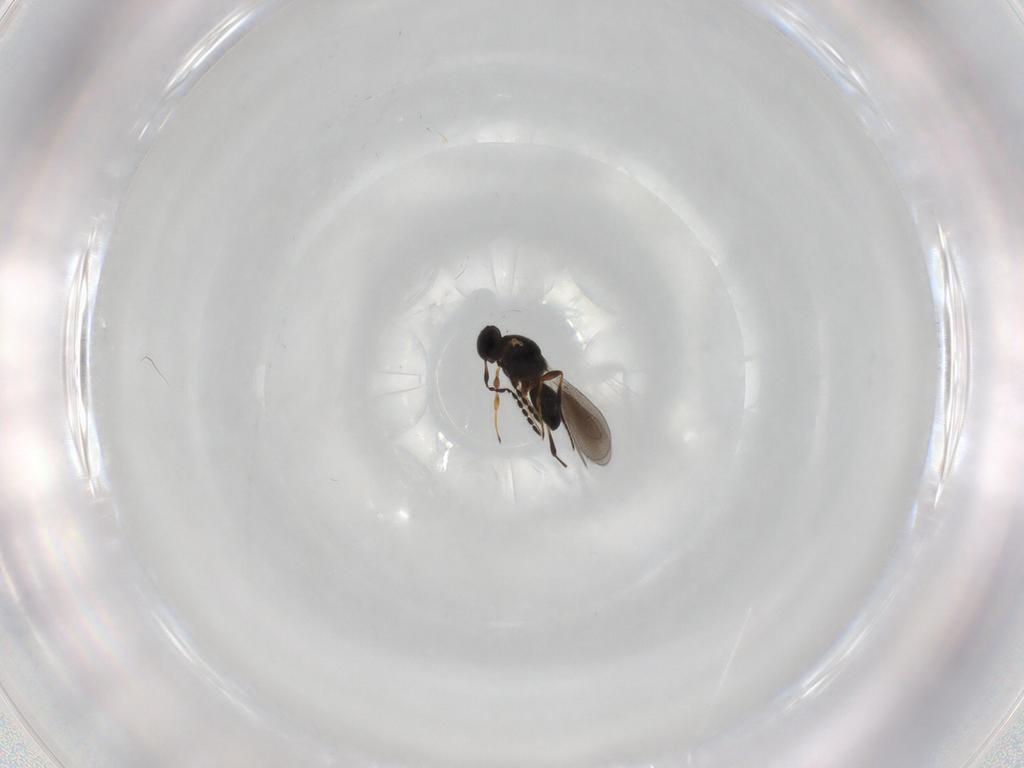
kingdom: Animalia
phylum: Arthropoda
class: Insecta
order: Hymenoptera
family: Platygastridae
